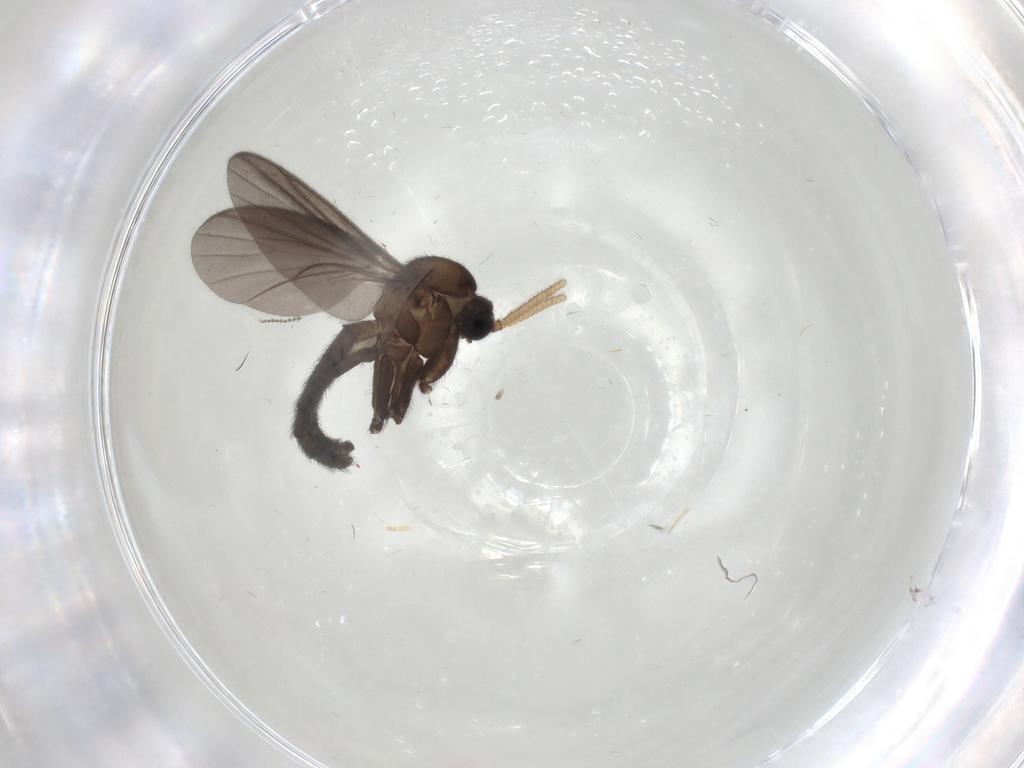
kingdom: Animalia
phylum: Arthropoda
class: Insecta
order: Diptera
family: Mycetophilidae
